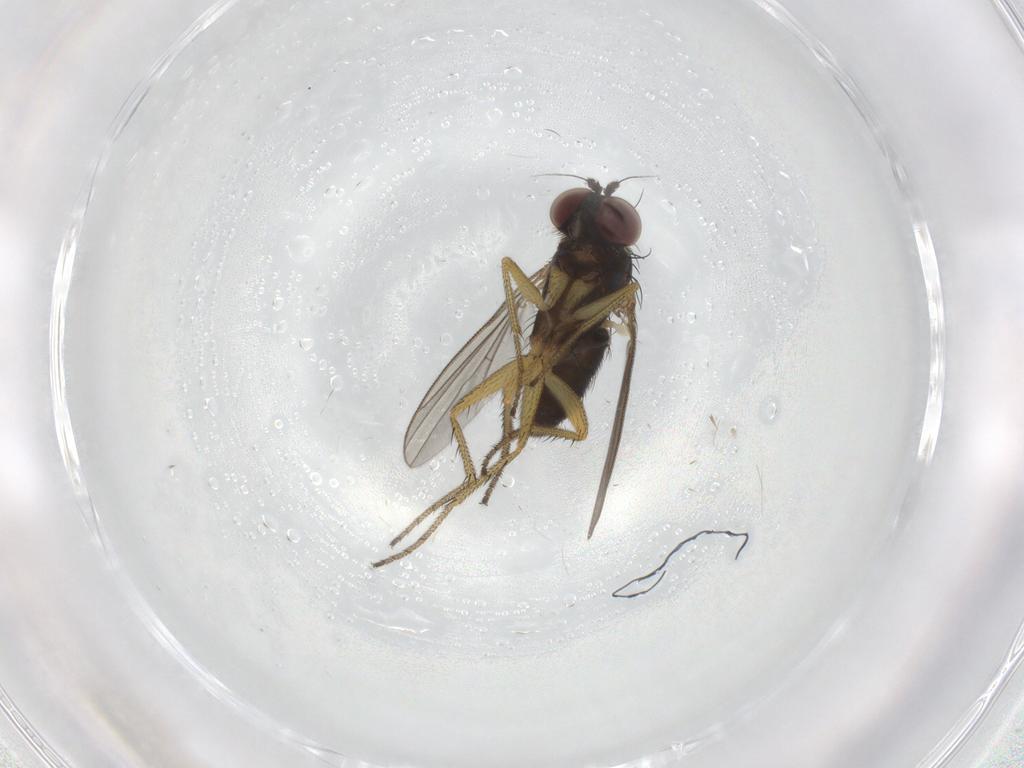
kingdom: Animalia
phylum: Arthropoda
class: Insecta
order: Diptera
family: Dolichopodidae
